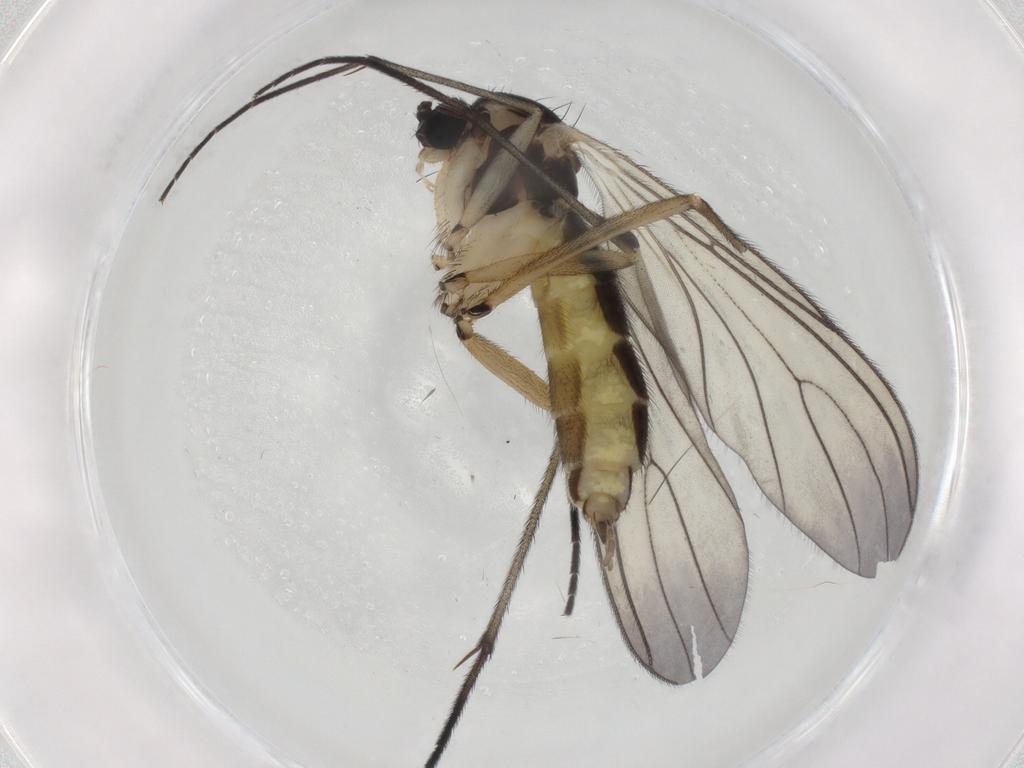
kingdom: Animalia
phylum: Arthropoda
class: Insecta
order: Diptera
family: Sciaridae
